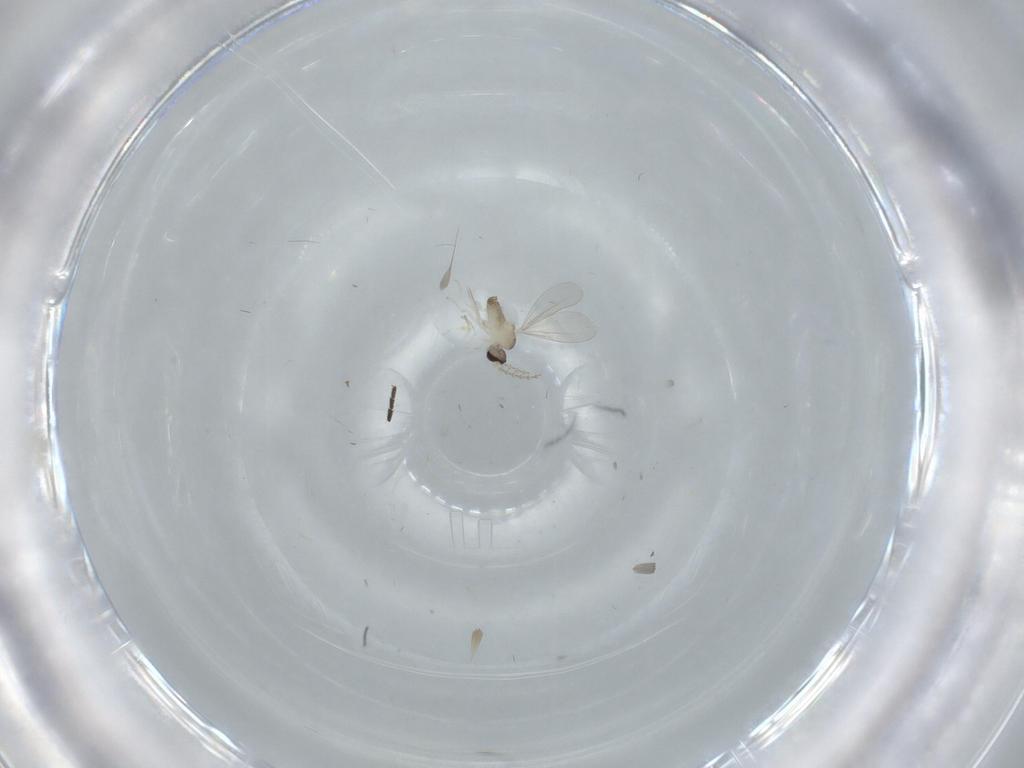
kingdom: Animalia
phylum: Arthropoda
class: Insecta
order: Diptera
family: Sciaridae
